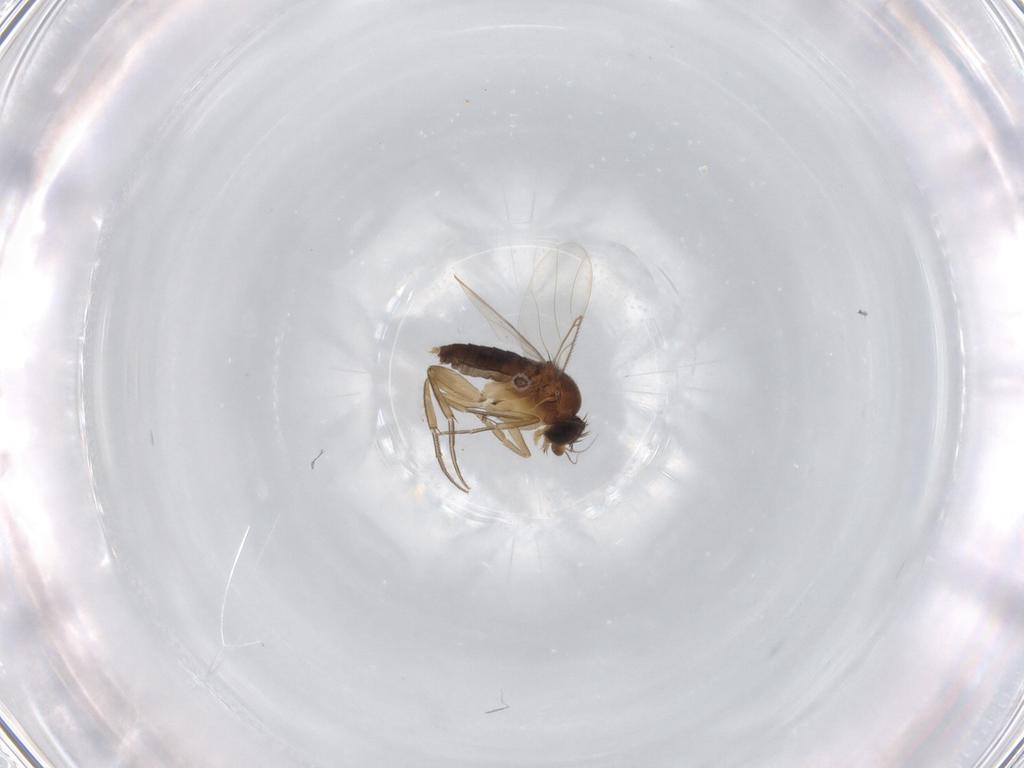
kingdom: Animalia
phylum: Arthropoda
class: Insecta
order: Diptera
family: Phoridae
